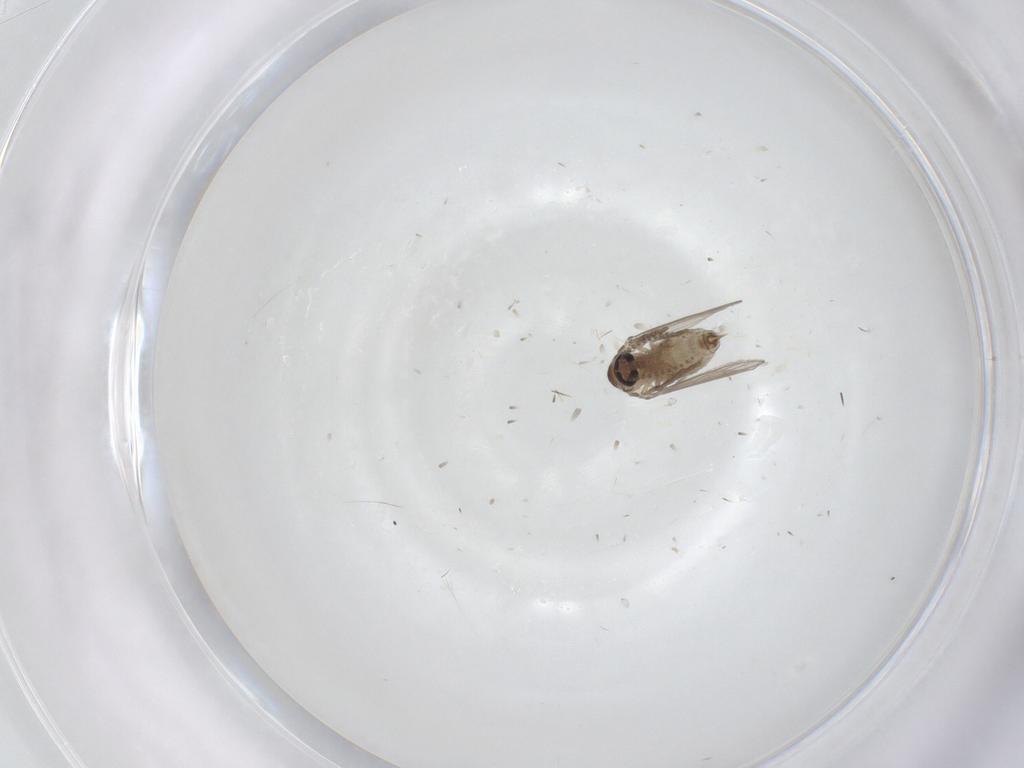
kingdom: Animalia
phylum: Arthropoda
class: Insecta
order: Diptera
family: Psychodidae
